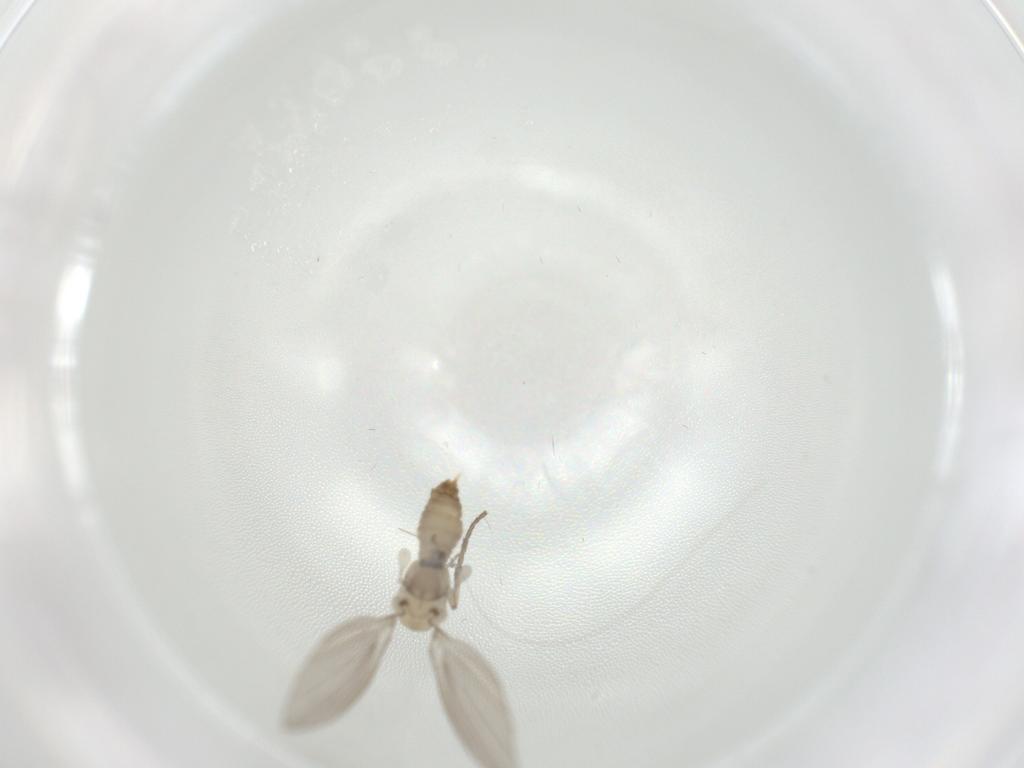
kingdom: Animalia
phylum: Arthropoda
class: Insecta
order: Diptera
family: Psychodidae
